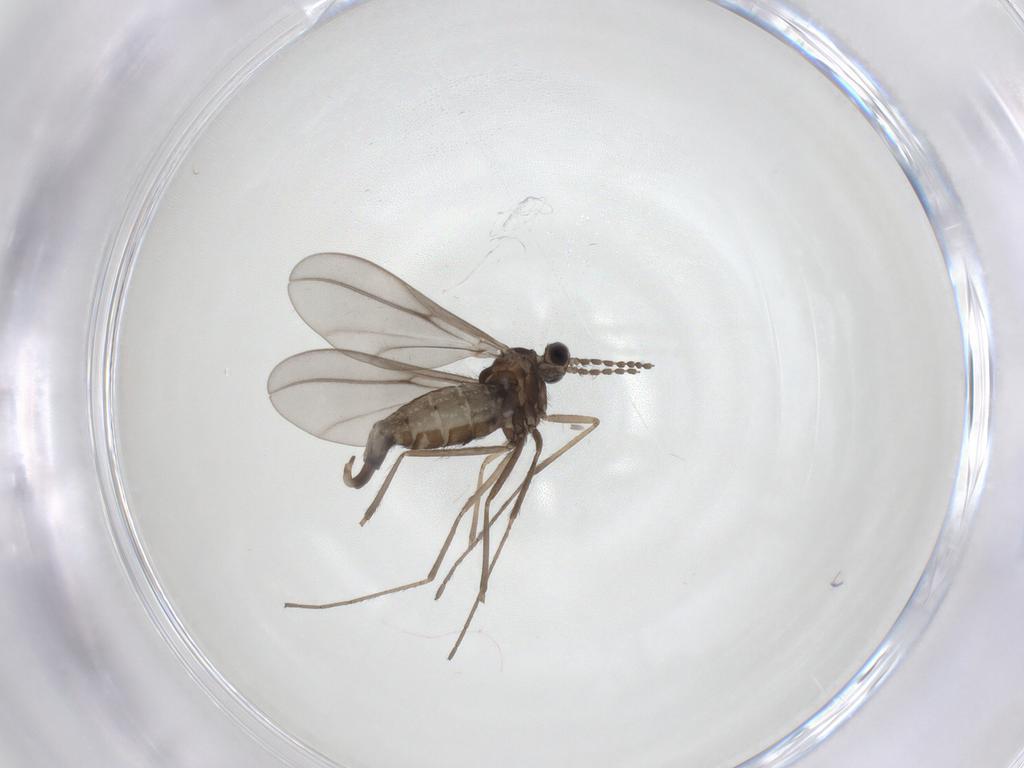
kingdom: Animalia
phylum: Arthropoda
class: Insecta
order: Diptera
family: Cecidomyiidae
